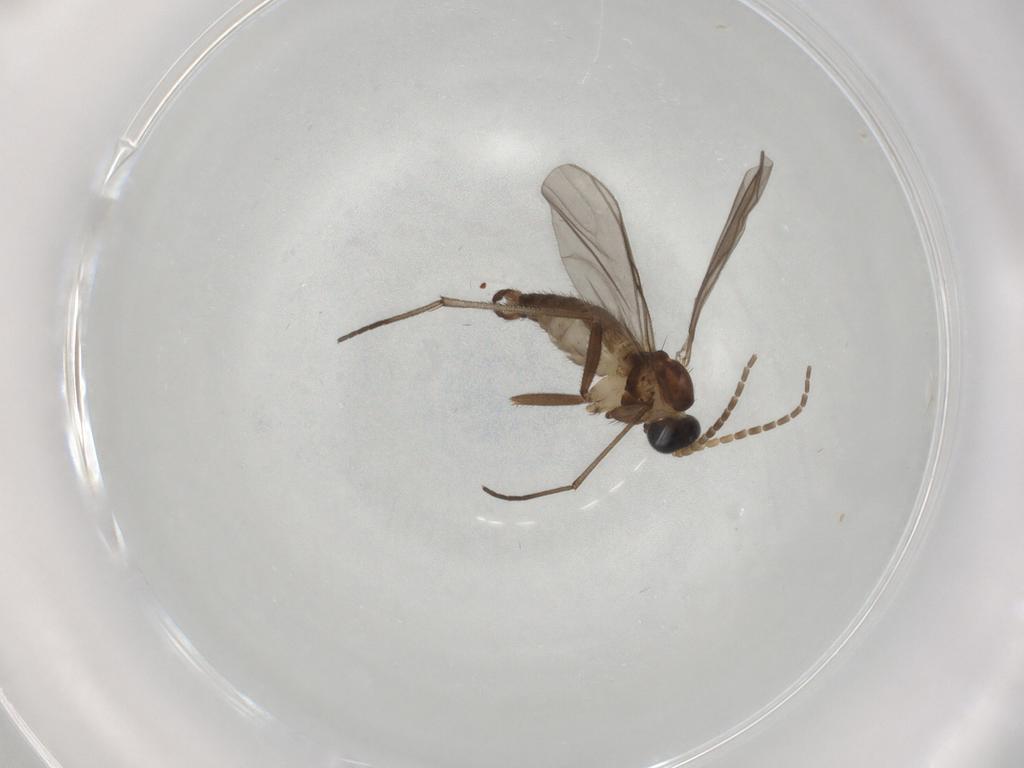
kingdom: Animalia
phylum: Arthropoda
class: Insecta
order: Diptera
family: Sciaridae
